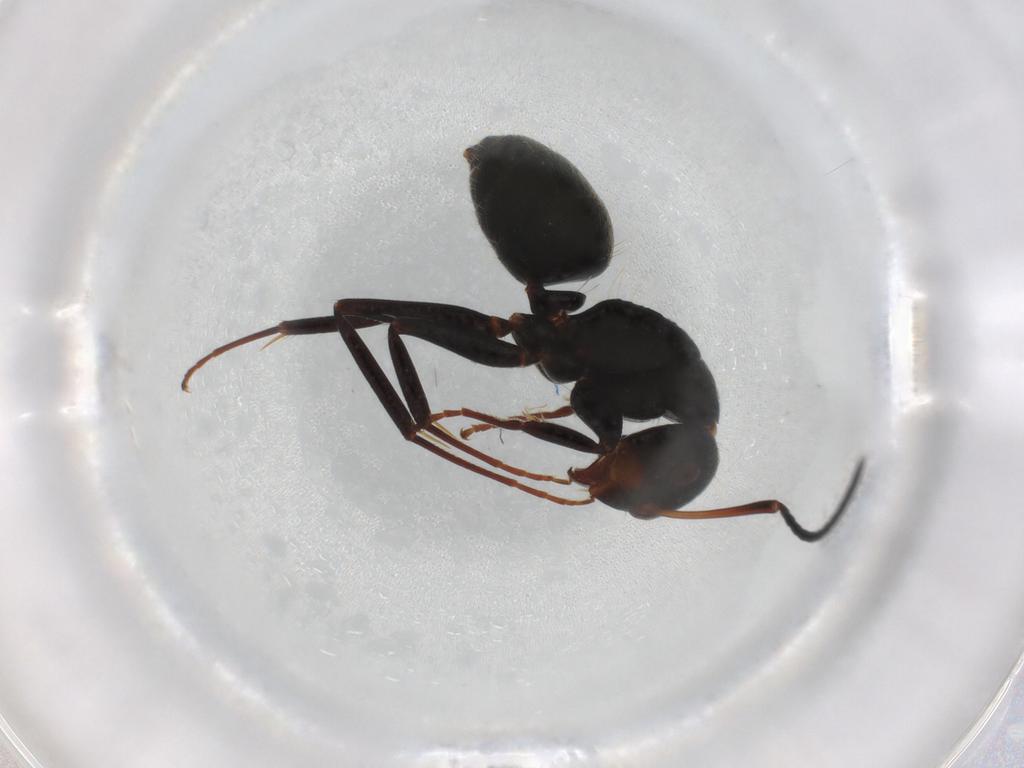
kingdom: Animalia
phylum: Arthropoda
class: Insecta
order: Hymenoptera
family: Formicidae
